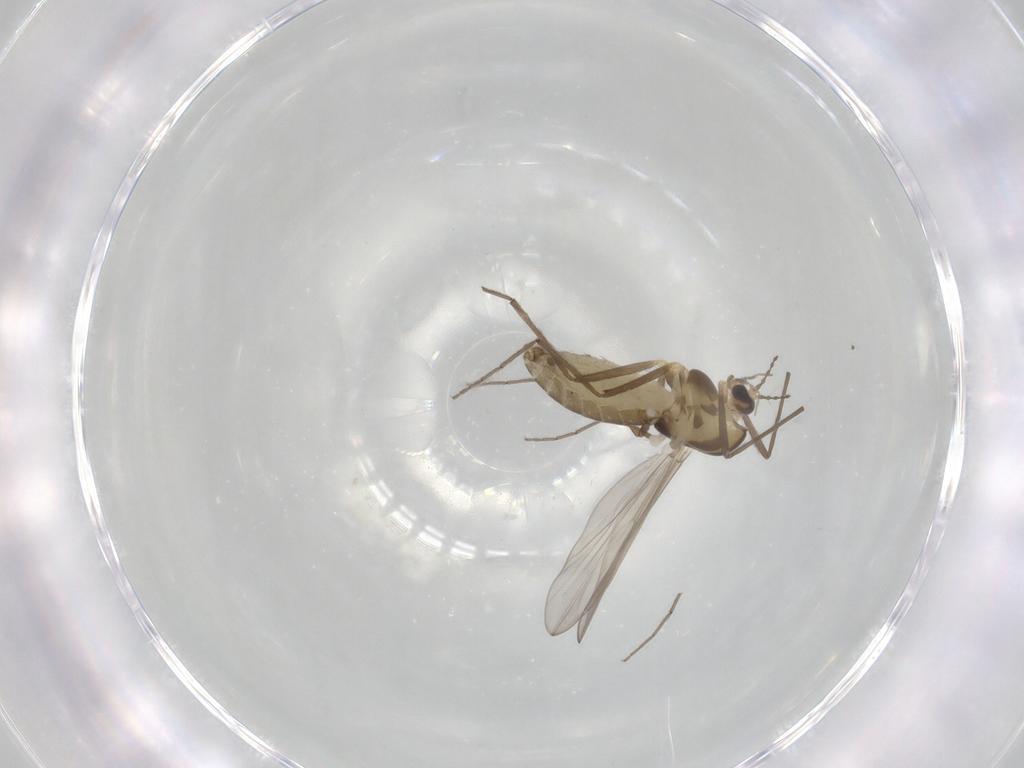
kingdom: Animalia
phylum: Arthropoda
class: Insecta
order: Diptera
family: Chironomidae
